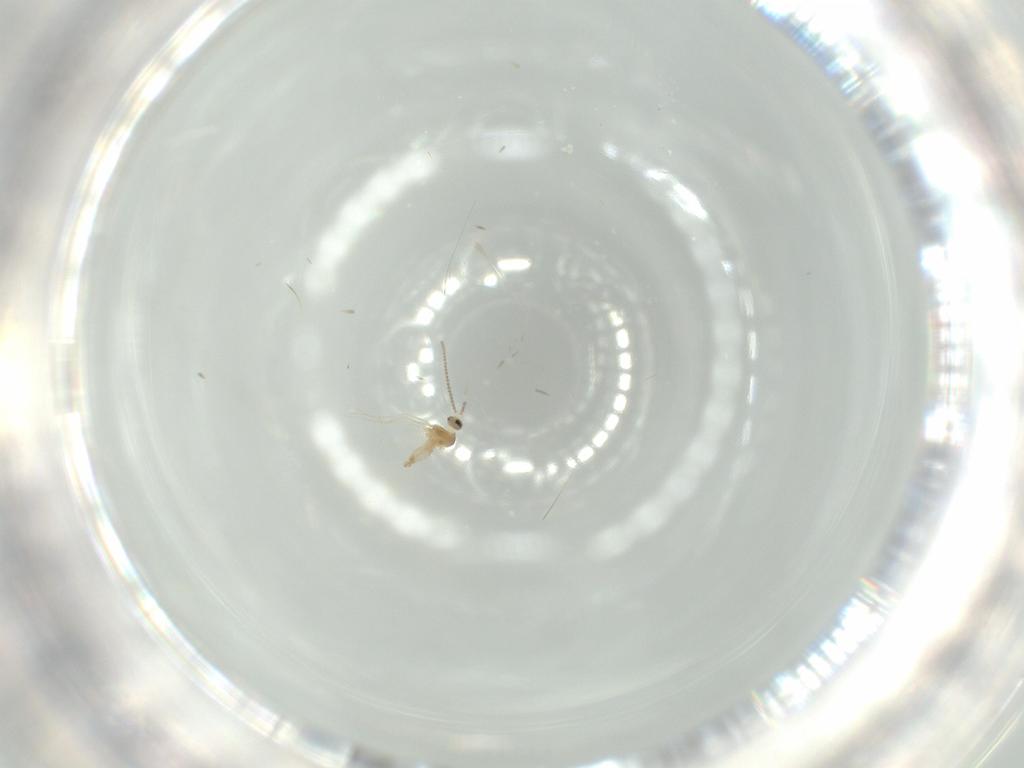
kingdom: Animalia
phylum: Arthropoda
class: Insecta
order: Diptera
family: Cecidomyiidae
